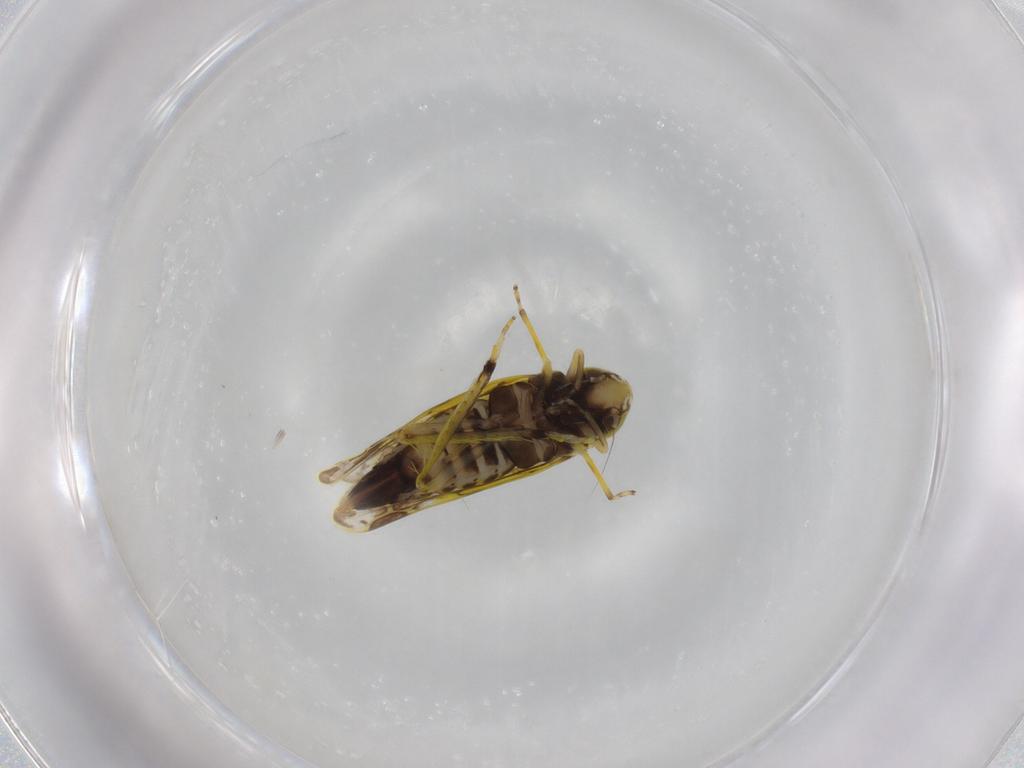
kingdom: Animalia
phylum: Arthropoda
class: Insecta
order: Hemiptera
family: Cicadellidae
